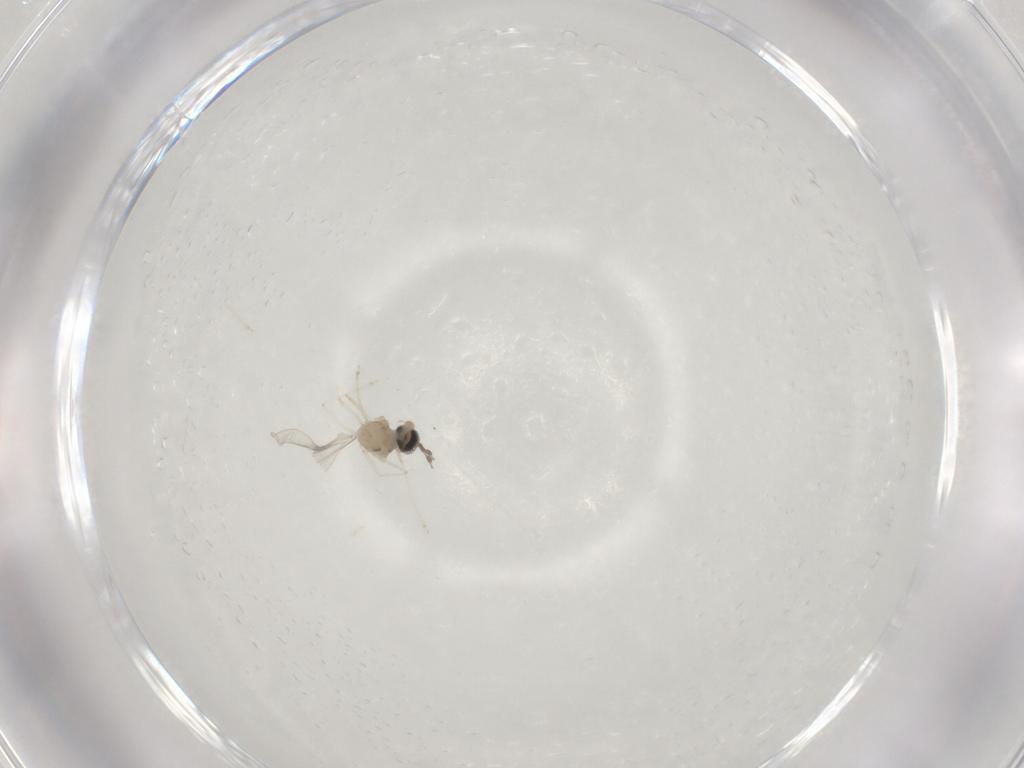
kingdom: Animalia
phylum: Arthropoda
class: Insecta
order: Diptera
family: Cecidomyiidae
